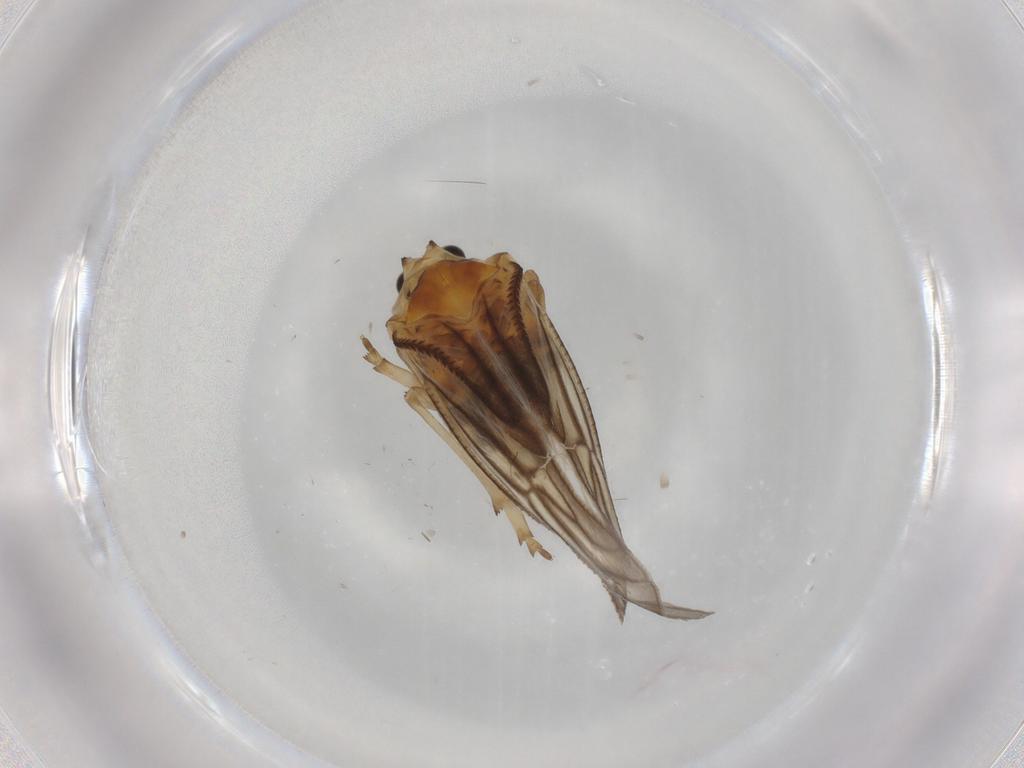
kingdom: Animalia
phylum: Arthropoda
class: Insecta
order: Hemiptera
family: Meenoplidae
